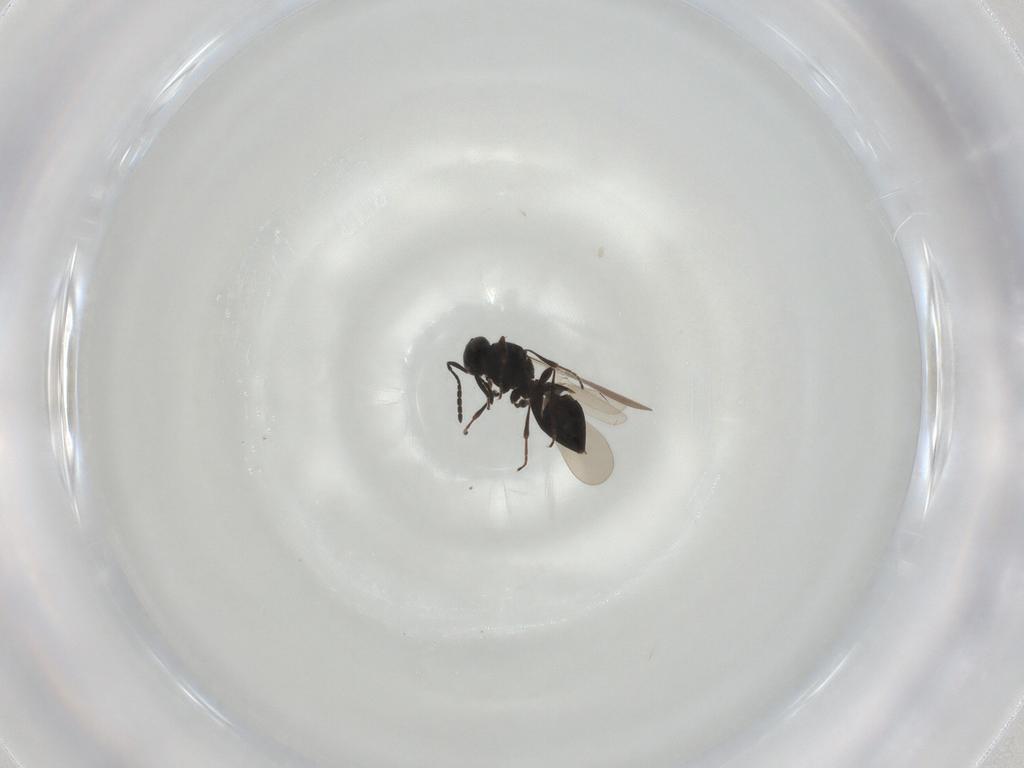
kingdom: Animalia
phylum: Arthropoda
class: Insecta
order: Hymenoptera
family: Platygastridae
